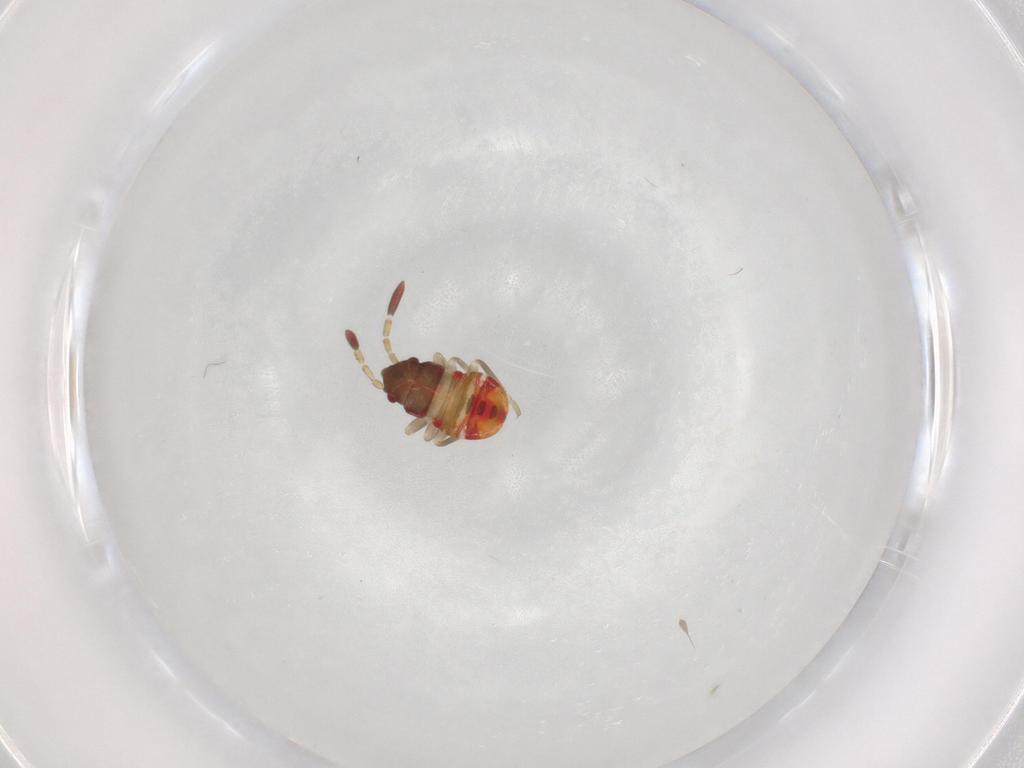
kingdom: Animalia
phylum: Arthropoda
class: Insecta
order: Hemiptera
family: Rhyparochromidae
